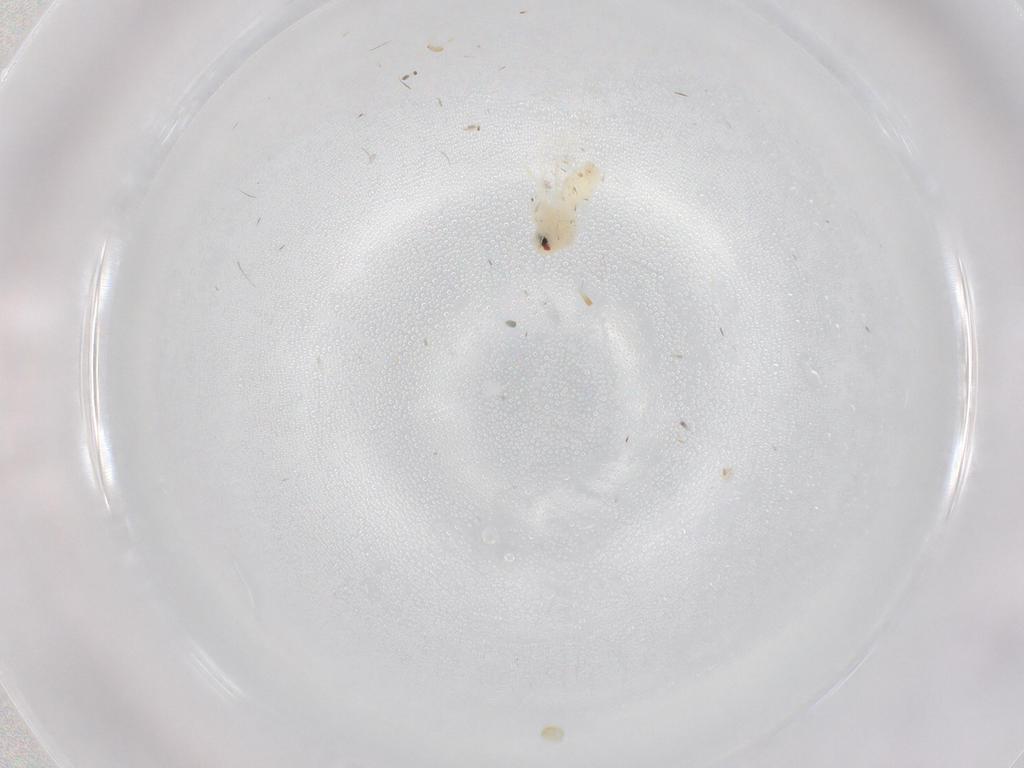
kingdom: Animalia
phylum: Arthropoda
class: Insecta
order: Hemiptera
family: Aleyrodidae
